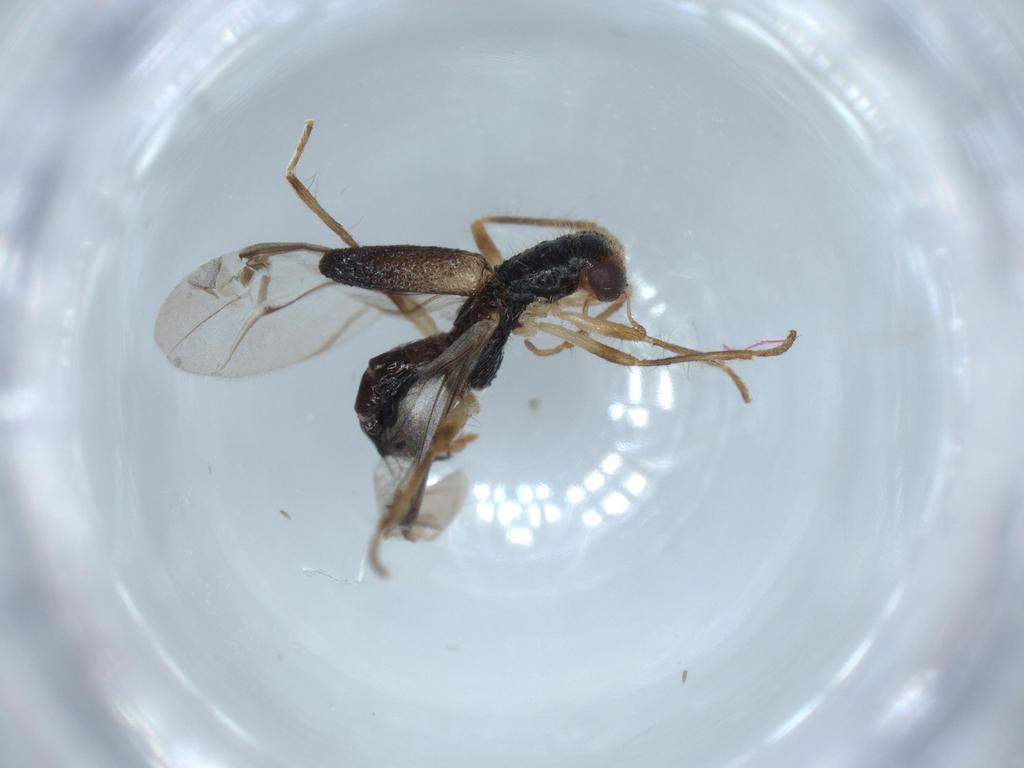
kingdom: Animalia
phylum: Arthropoda
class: Insecta
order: Coleoptera
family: Cleridae
